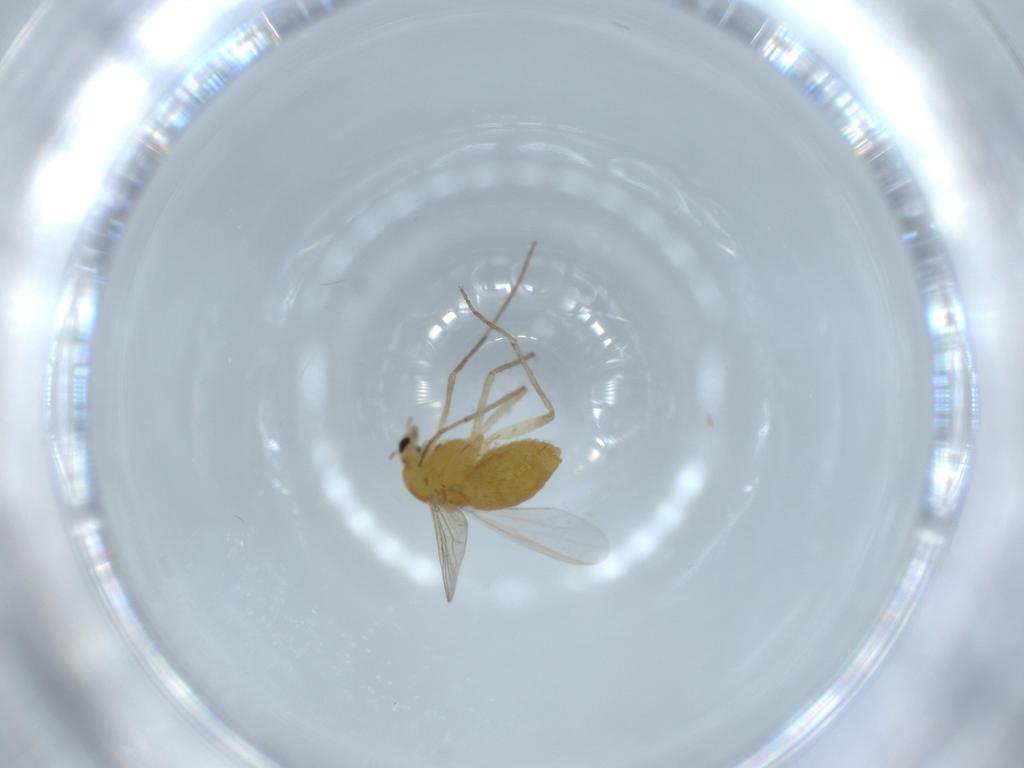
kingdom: Animalia
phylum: Arthropoda
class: Insecta
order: Diptera
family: Chironomidae
